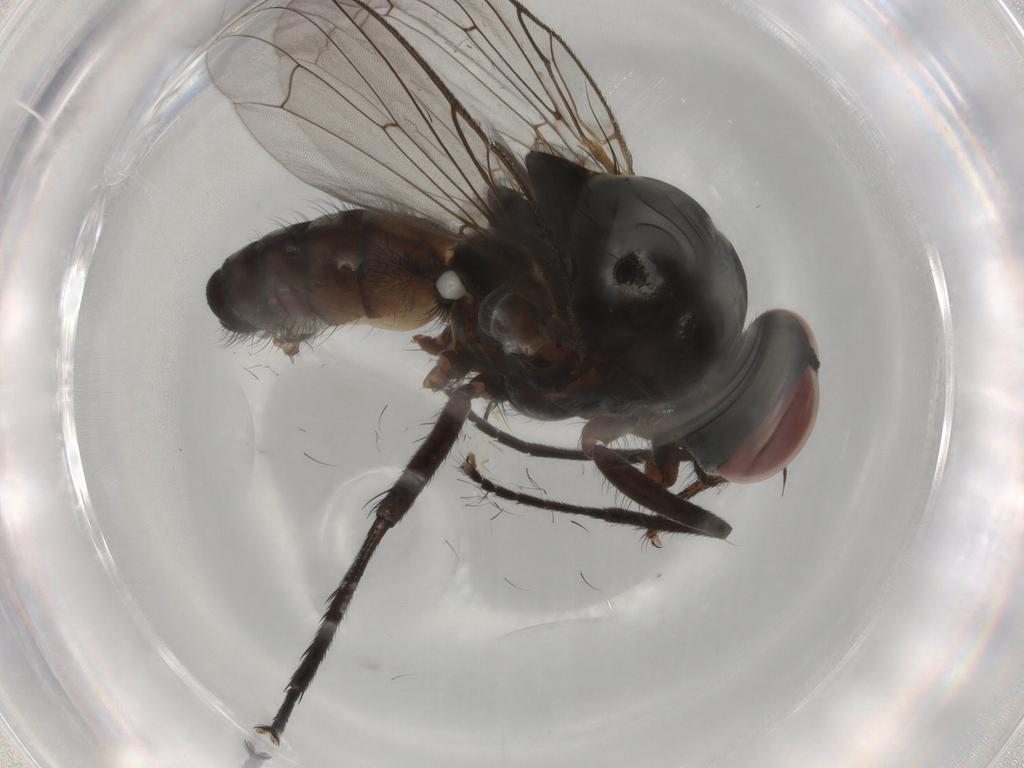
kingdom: Animalia
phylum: Arthropoda
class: Insecta
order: Diptera
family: Anthomyiidae
